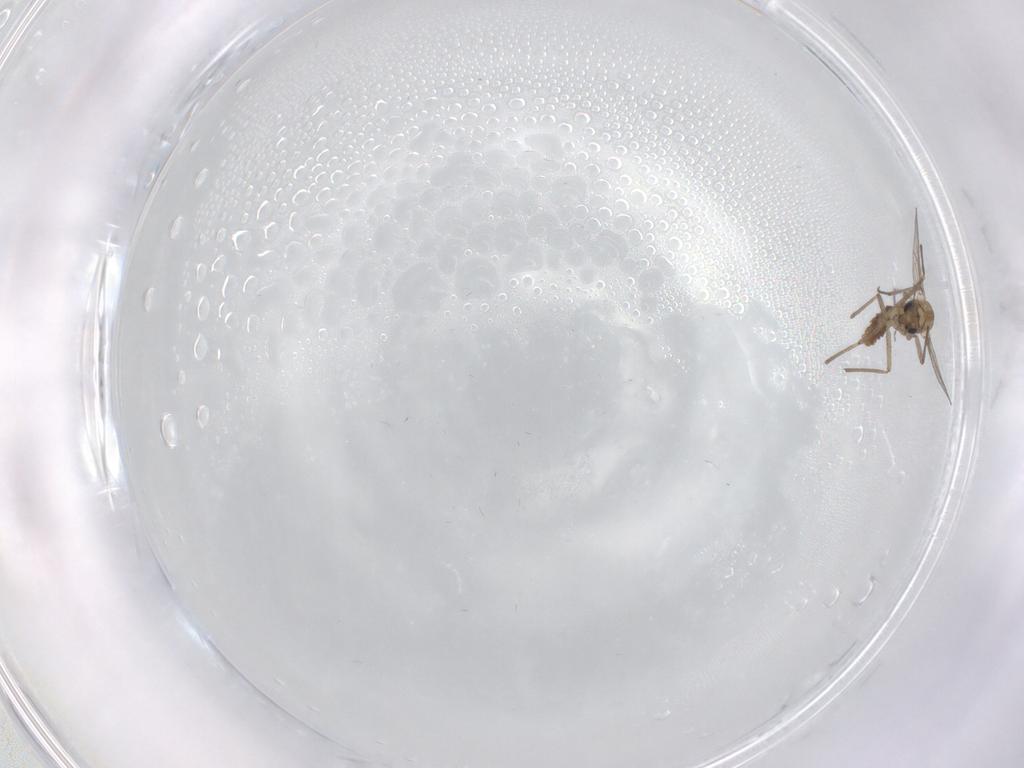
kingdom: Animalia
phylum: Arthropoda
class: Insecta
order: Diptera
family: Chironomidae
